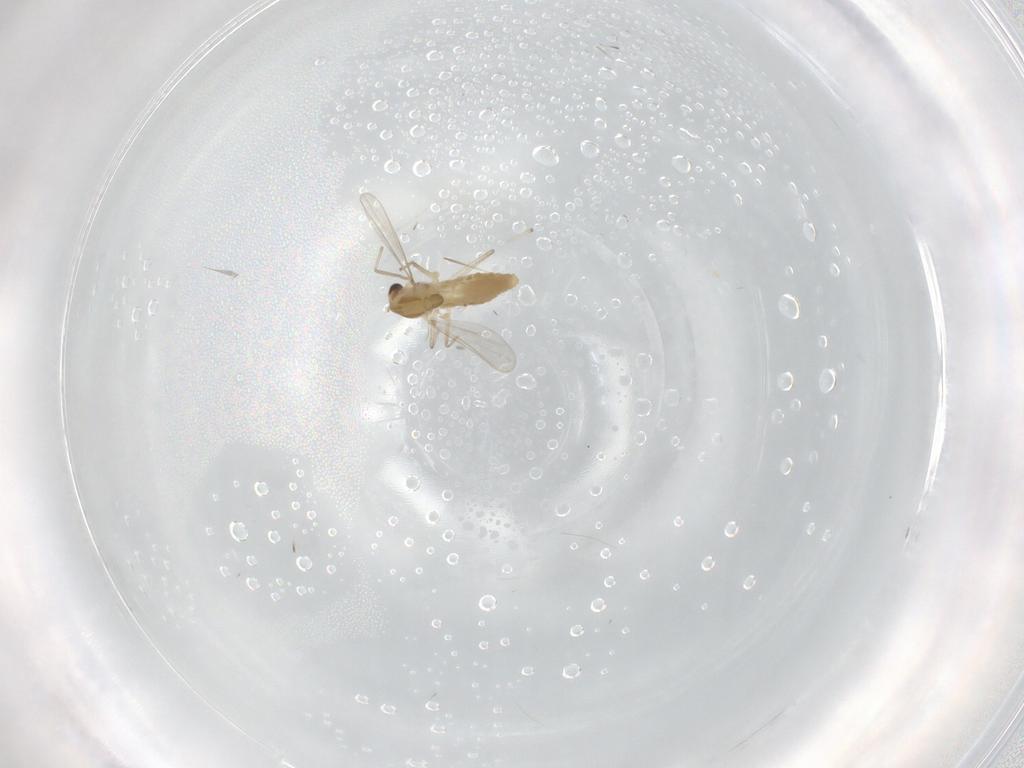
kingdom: Animalia
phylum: Arthropoda
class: Insecta
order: Diptera
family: Chironomidae
